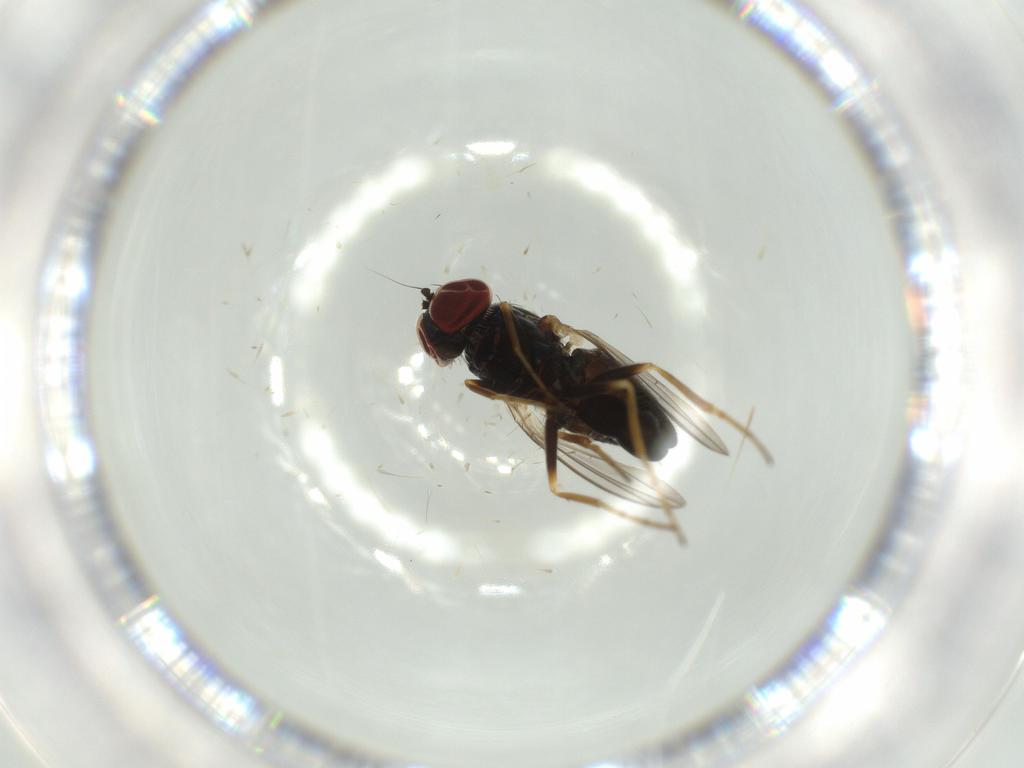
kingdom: Animalia
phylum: Arthropoda
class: Insecta
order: Diptera
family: Dolichopodidae
